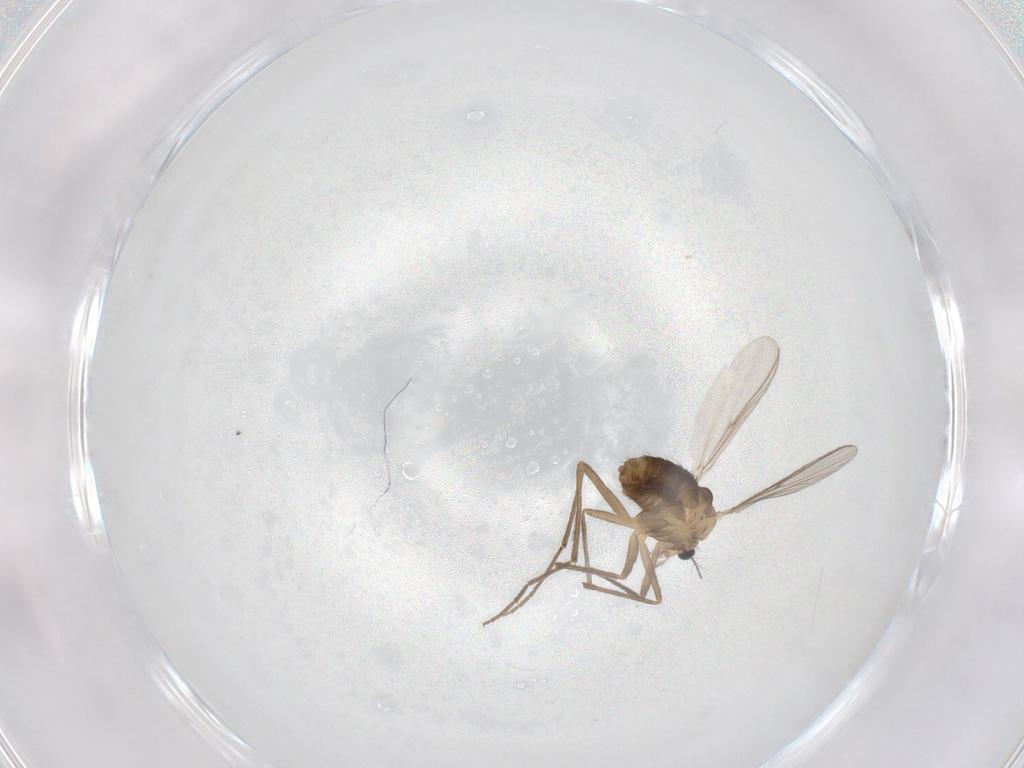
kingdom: Animalia
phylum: Arthropoda
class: Insecta
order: Diptera
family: Chironomidae
